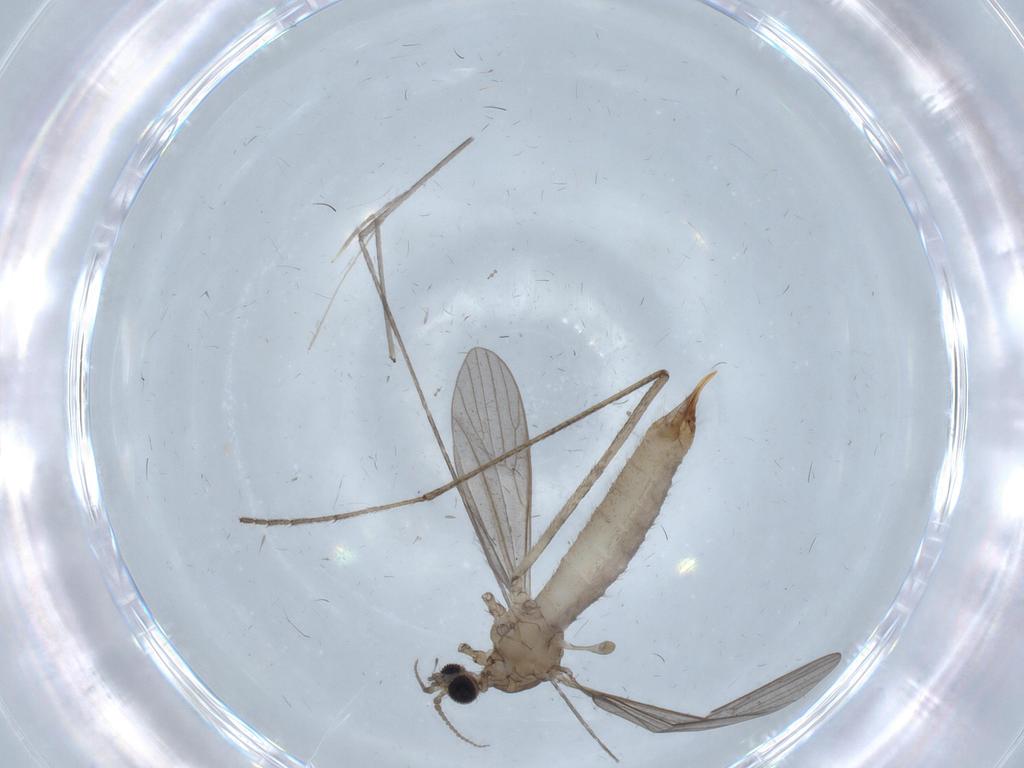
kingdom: Animalia
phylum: Arthropoda
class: Insecta
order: Diptera
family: Limoniidae
